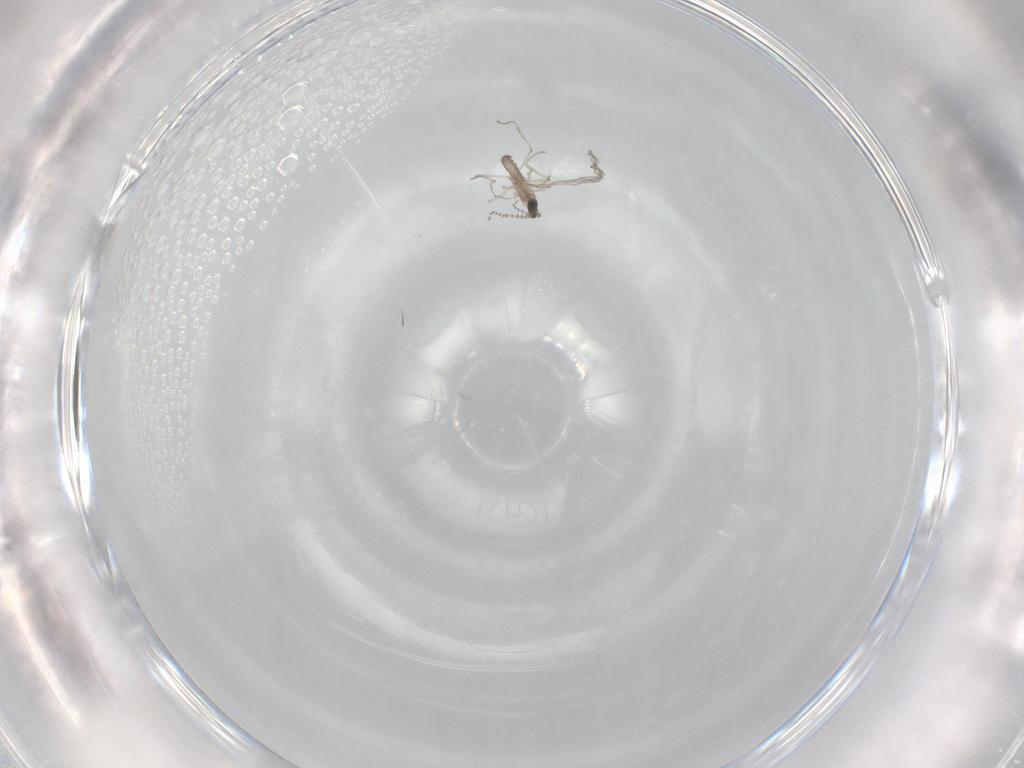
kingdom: Animalia
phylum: Arthropoda
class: Insecta
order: Diptera
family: Cecidomyiidae
